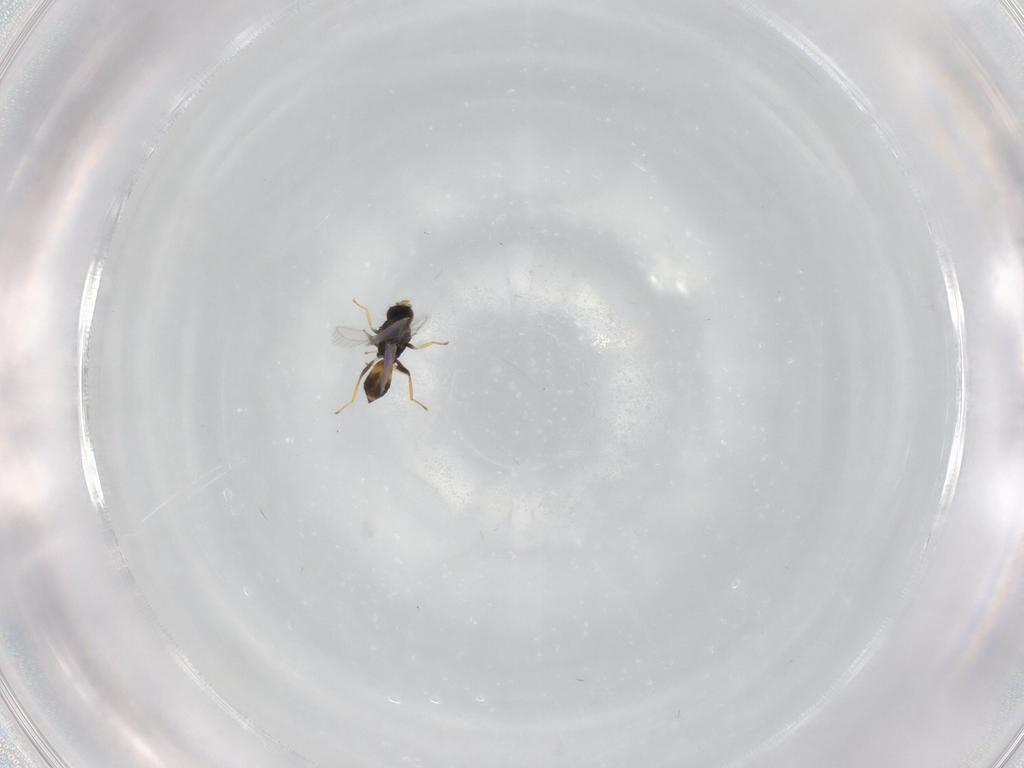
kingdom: Animalia
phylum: Arthropoda
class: Insecta
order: Hymenoptera
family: Eulophidae
